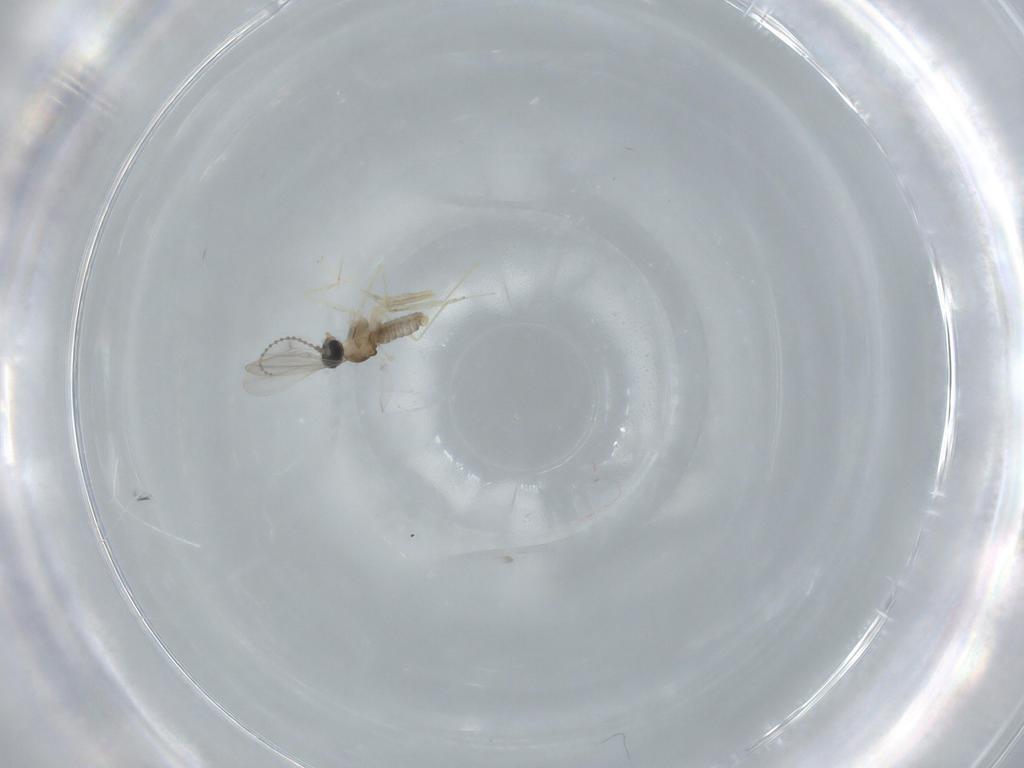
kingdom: Animalia
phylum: Arthropoda
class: Insecta
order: Diptera
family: Cecidomyiidae
